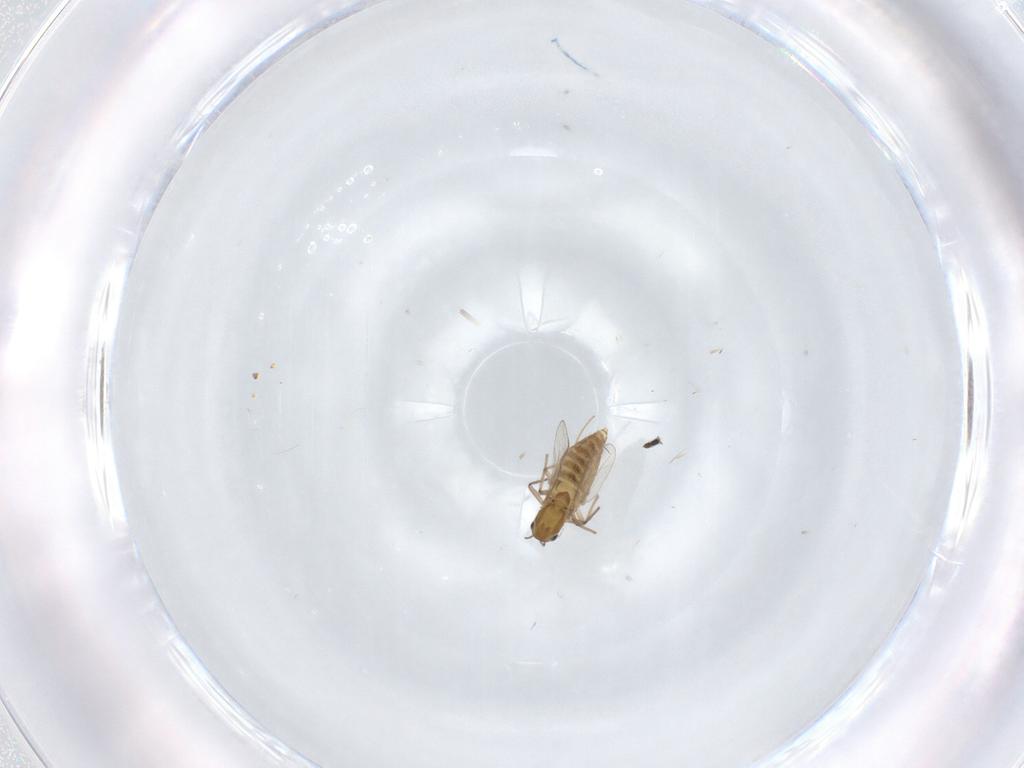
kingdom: Animalia
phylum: Arthropoda
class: Insecta
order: Diptera
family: Chironomidae
